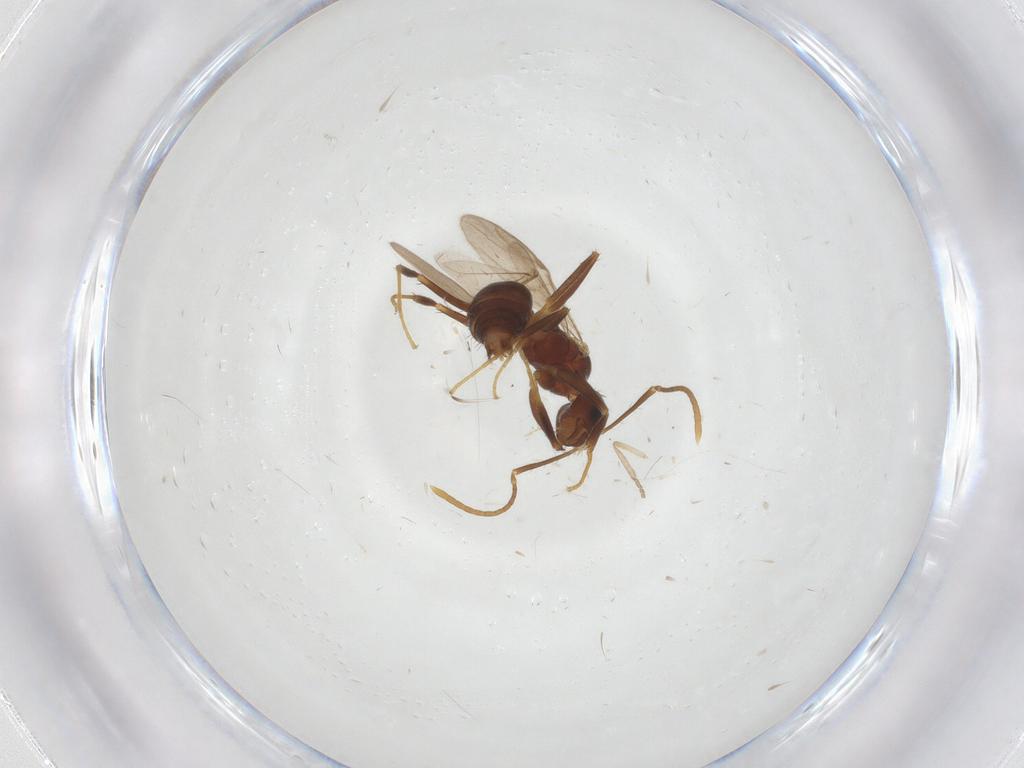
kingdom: Animalia
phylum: Arthropoda
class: Insecta
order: Hymenoptera
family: Formicidae
